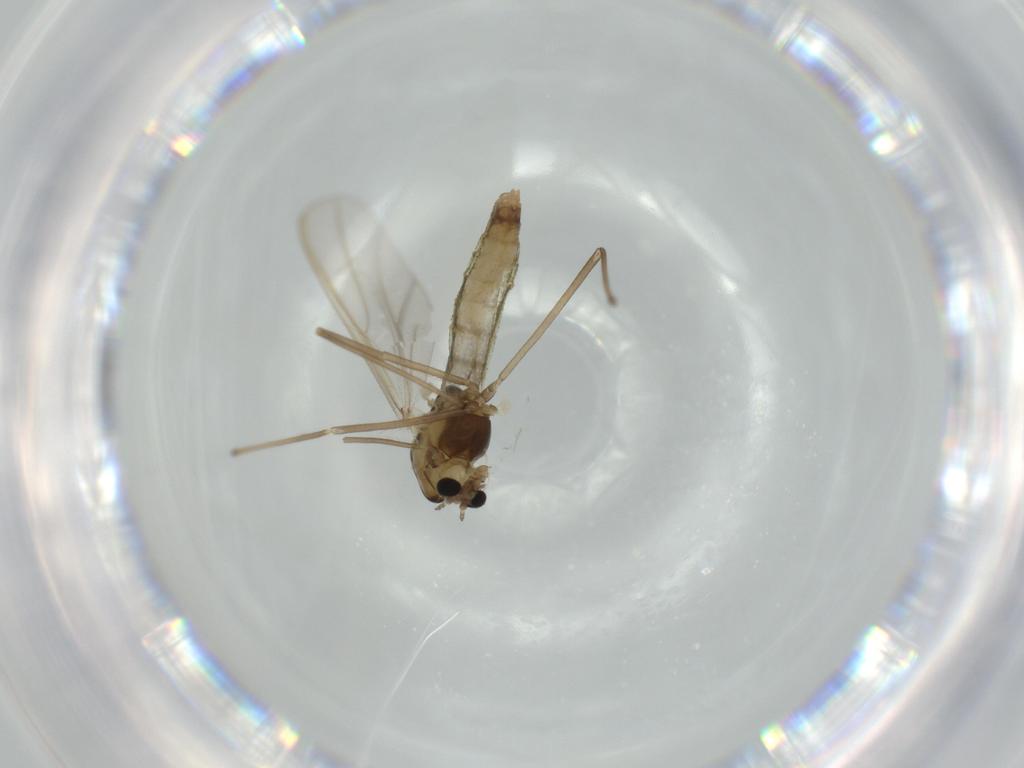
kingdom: Animalia
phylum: Arthropoda
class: Insecta
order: Diptera
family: Chironomidae
